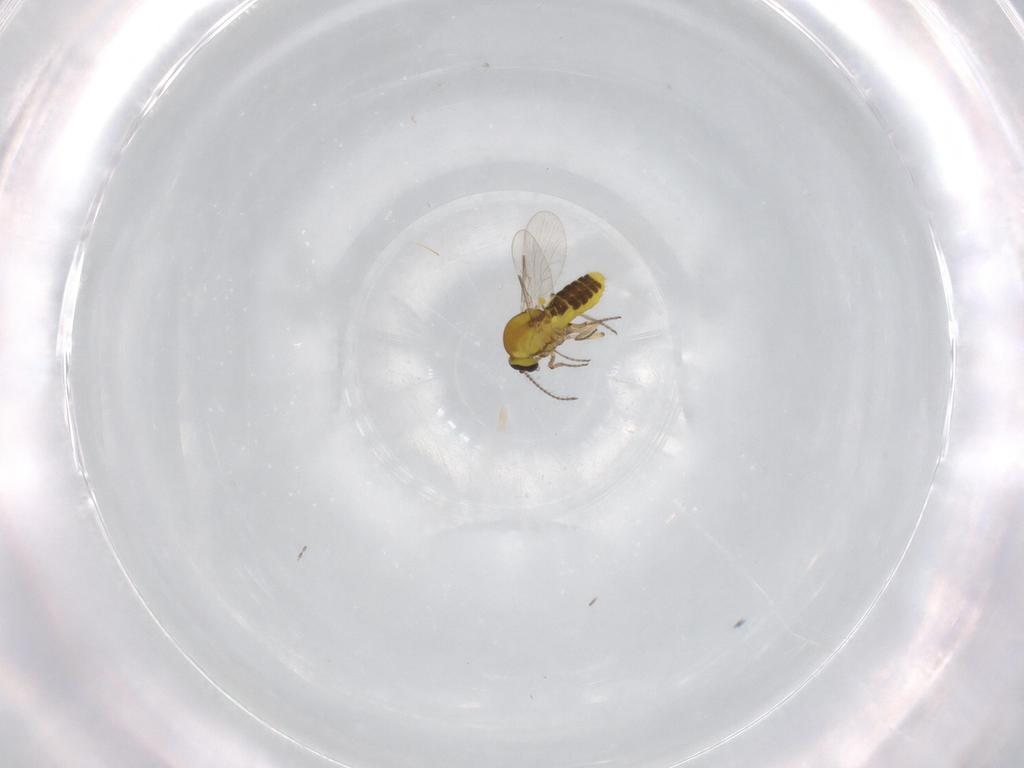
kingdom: Animalia
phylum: Arthropoda
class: Insecta
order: Diptera
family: Ceratopogonidae
